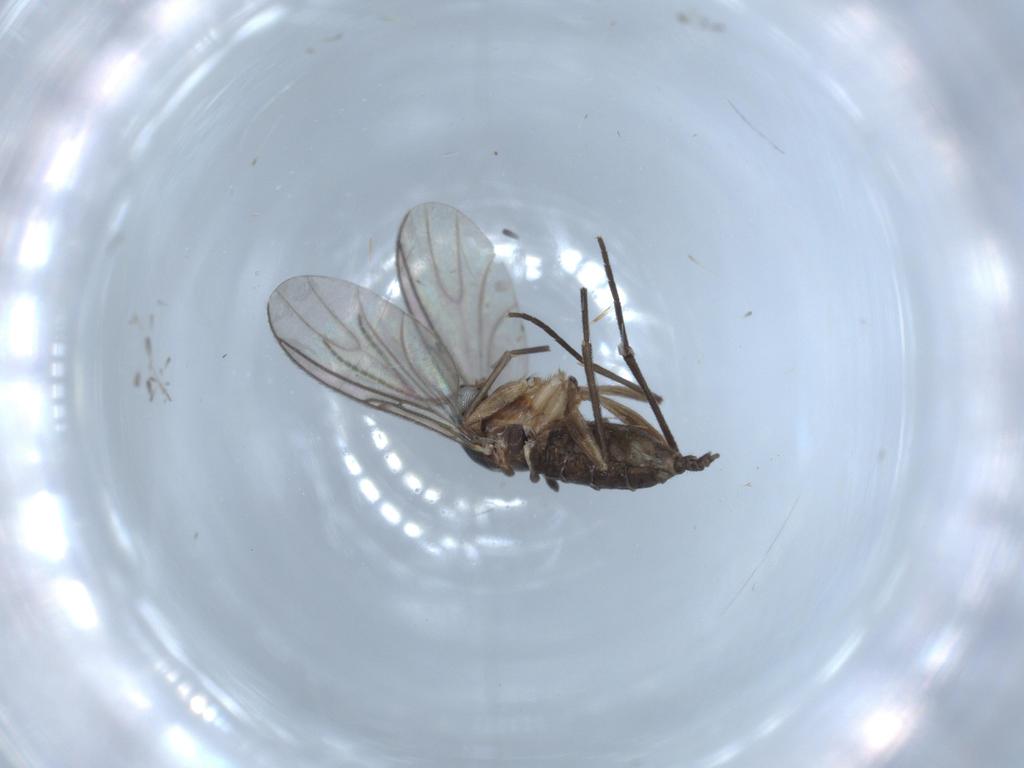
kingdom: Animalia
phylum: Arthropoda
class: Insecta
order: Diptera
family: Sciaridae
